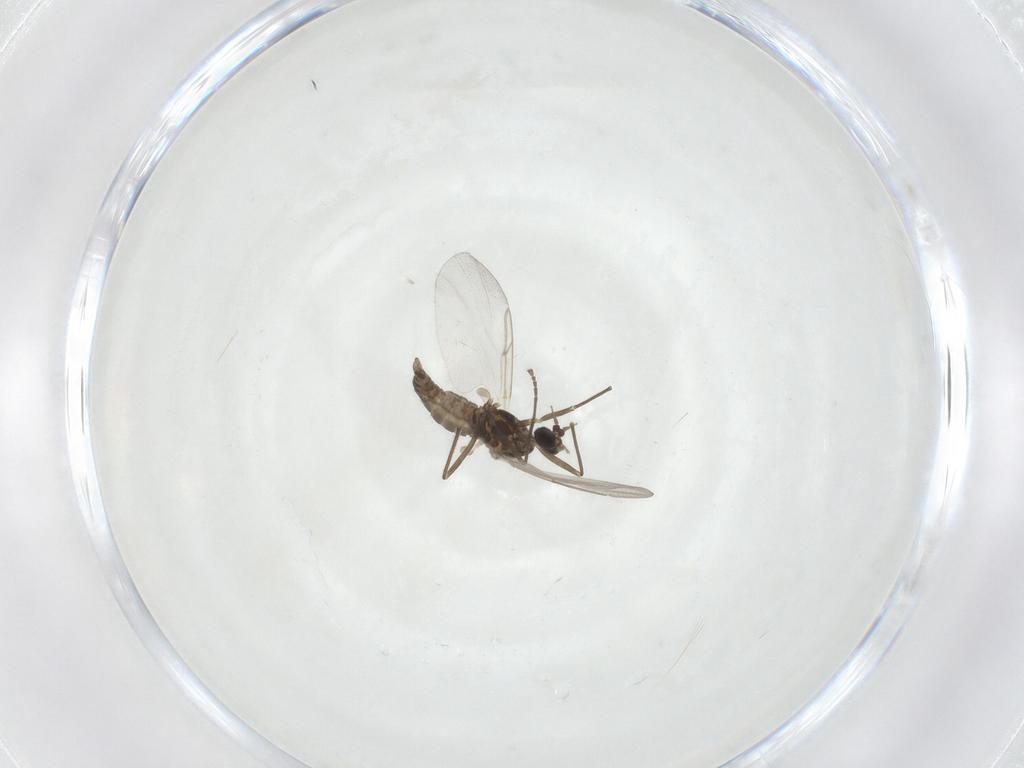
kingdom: Animalia
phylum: Arthropoda
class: Insecta
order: Diptera
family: Cecidomyiidae
